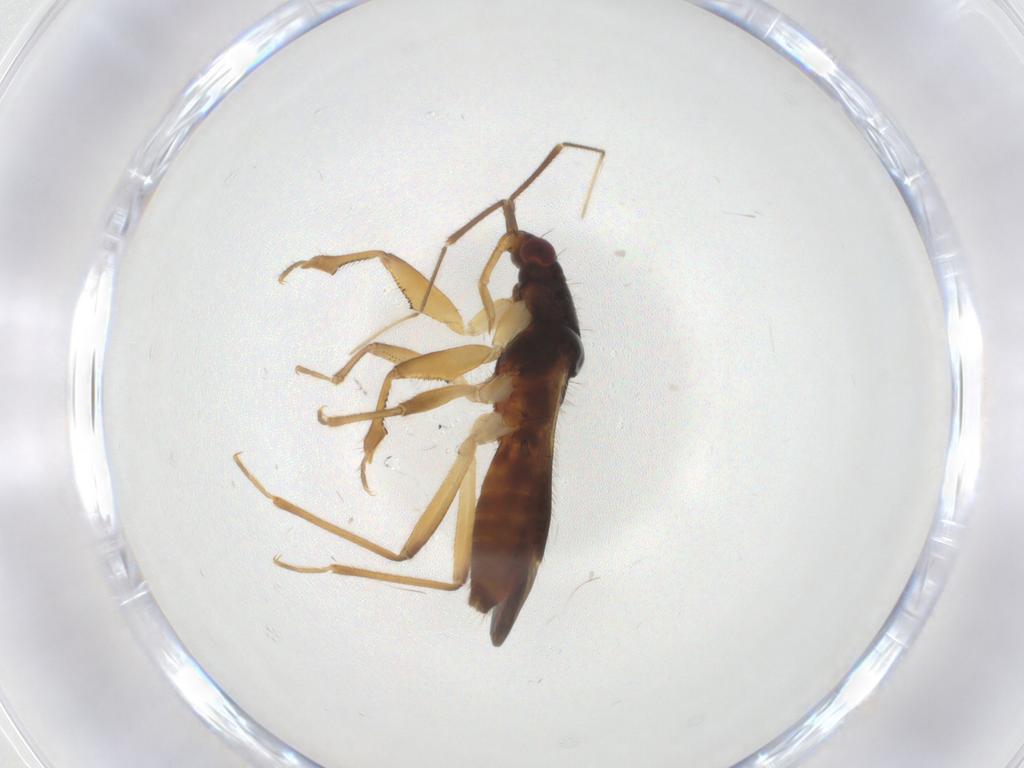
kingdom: Animalia
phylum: Arthropoda
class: Insecta
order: Hemiptera
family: Nabidae
